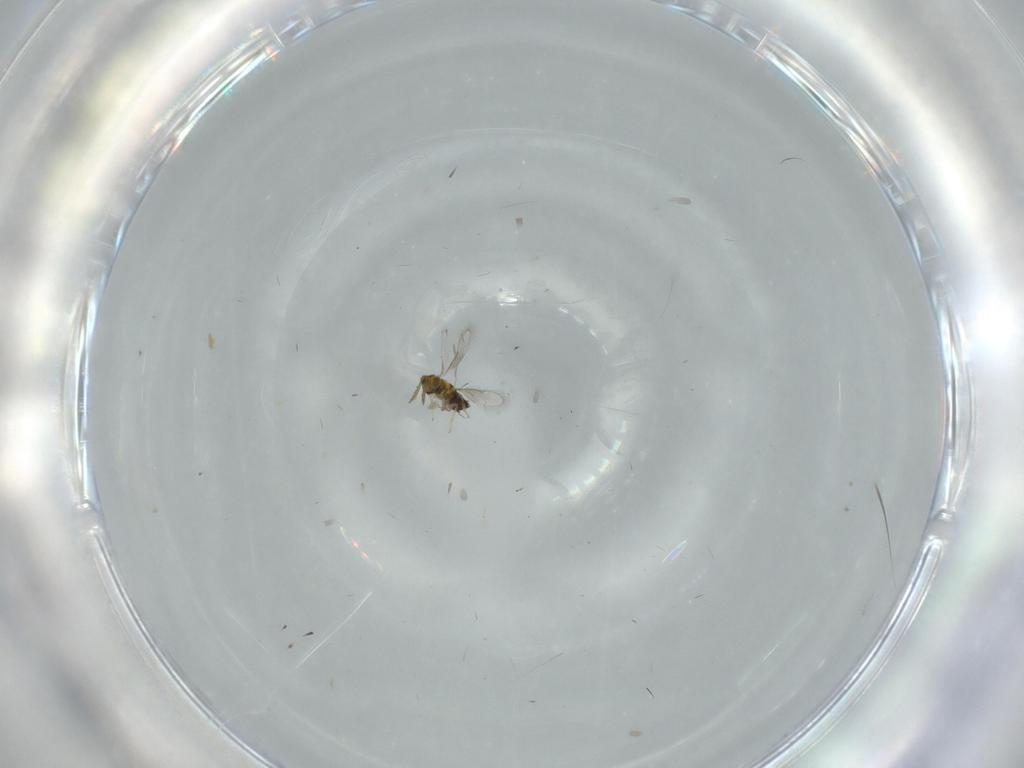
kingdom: Animalia
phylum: Arthropoda
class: Insecta
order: Hymenoptera
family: Aphelinidae
